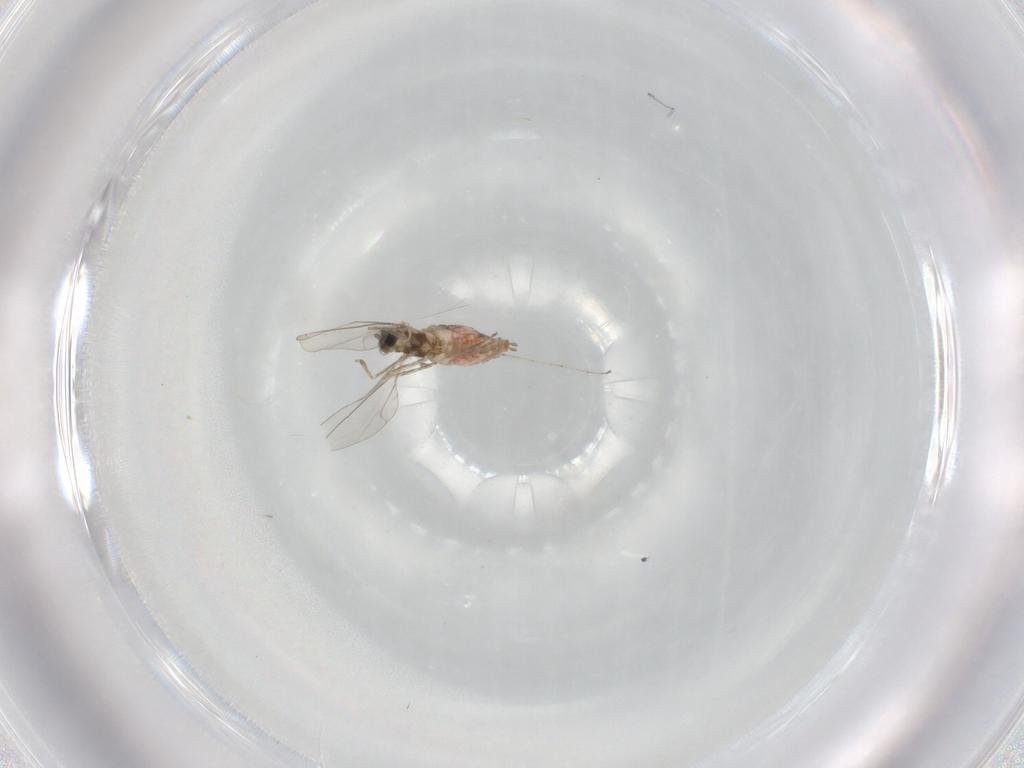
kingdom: Animalia
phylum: Arthropoda
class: Insecta
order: Diptera
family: Cecidomyiidae
